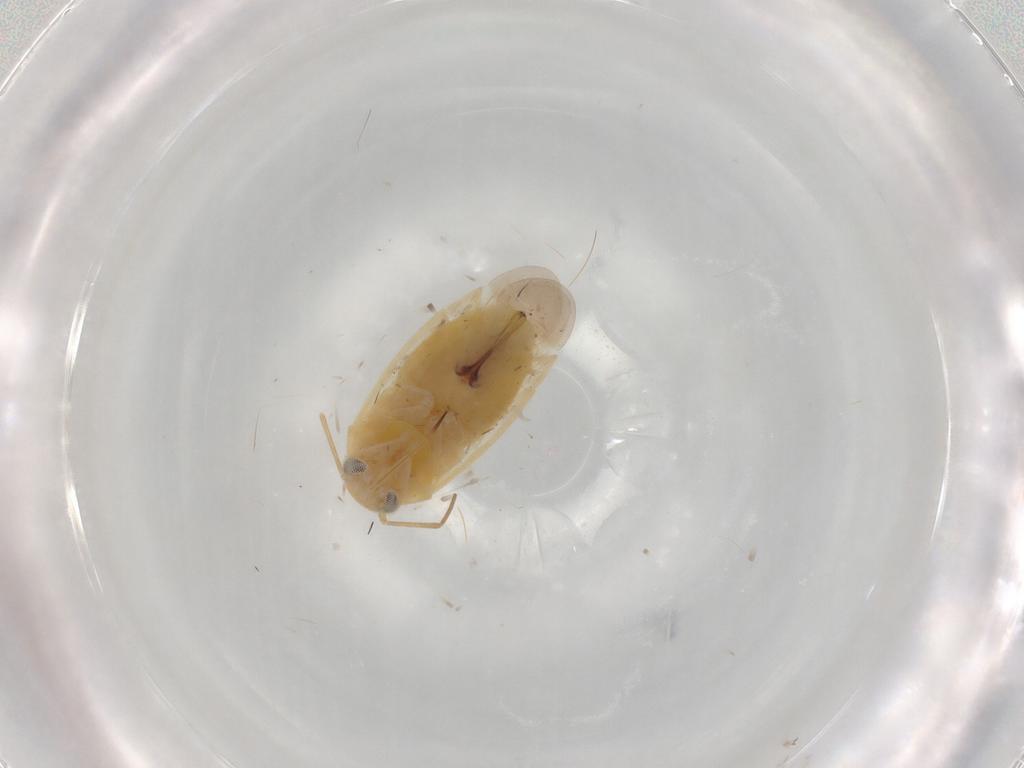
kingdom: Animalia
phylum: Arthropoda
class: Insecta
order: Hemiptera
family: Miridae
